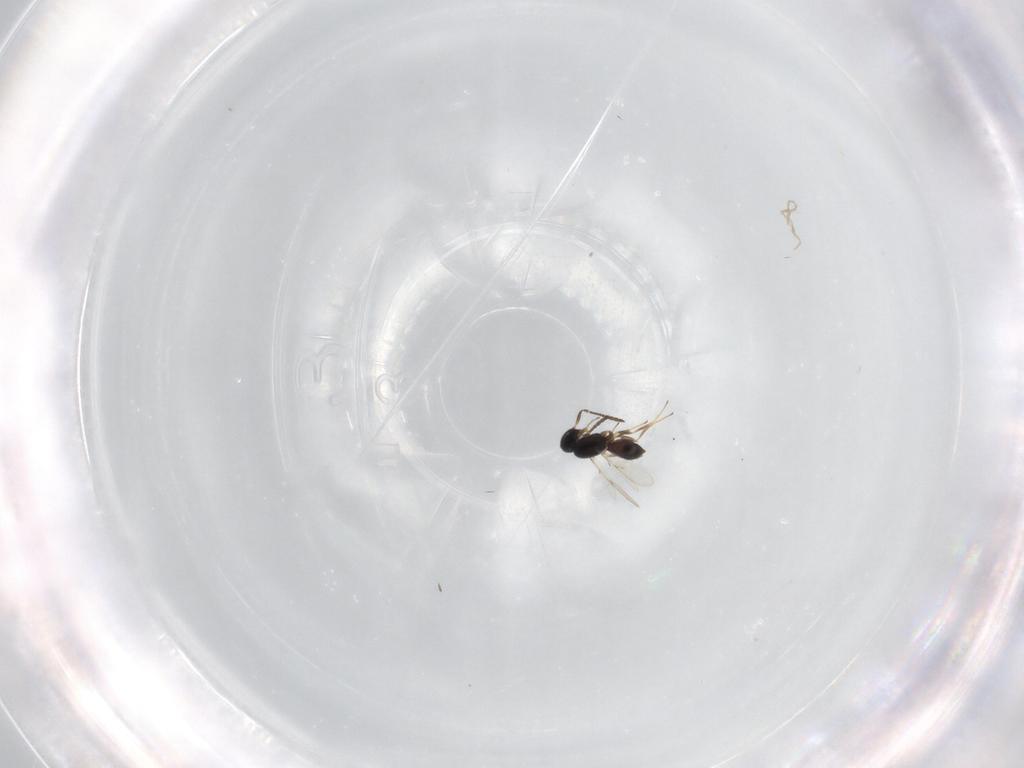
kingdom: Animalia
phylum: Arthropoda
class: Insecta
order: Hymenoptera
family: Scelionidae
